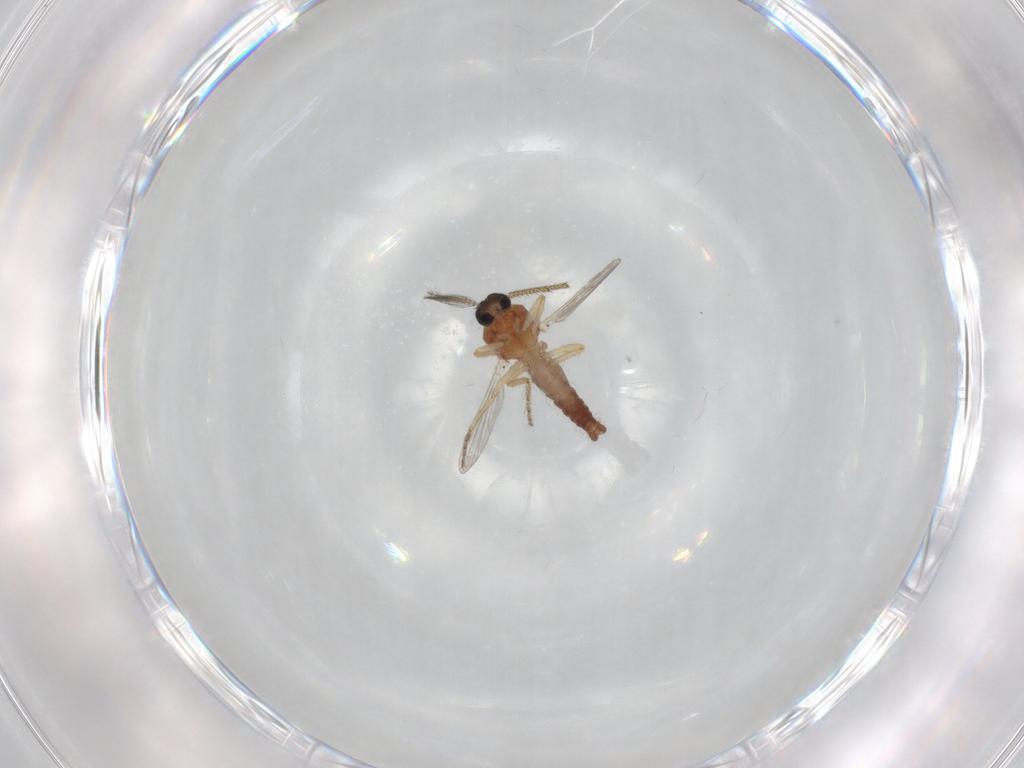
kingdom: Animalia
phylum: Arthropoda
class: Insecta
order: Diptera
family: Ceratopogonidae
